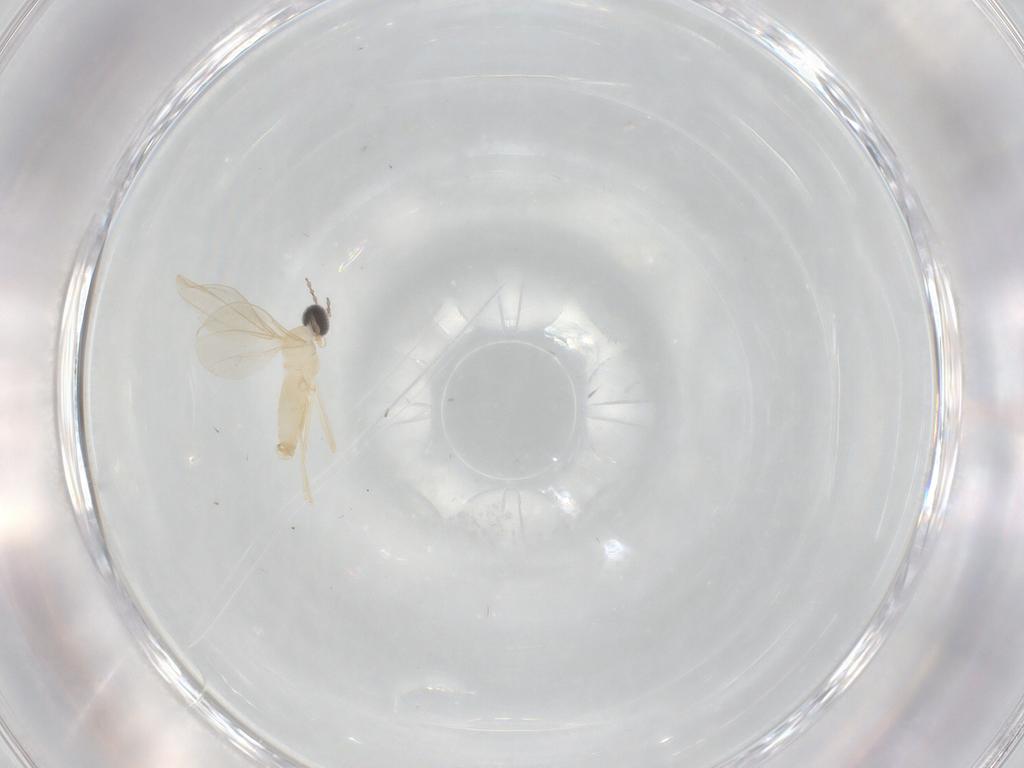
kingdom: Animalia
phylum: Arthropoda
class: Insecta
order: Diptera
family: Cecidomyiidae
